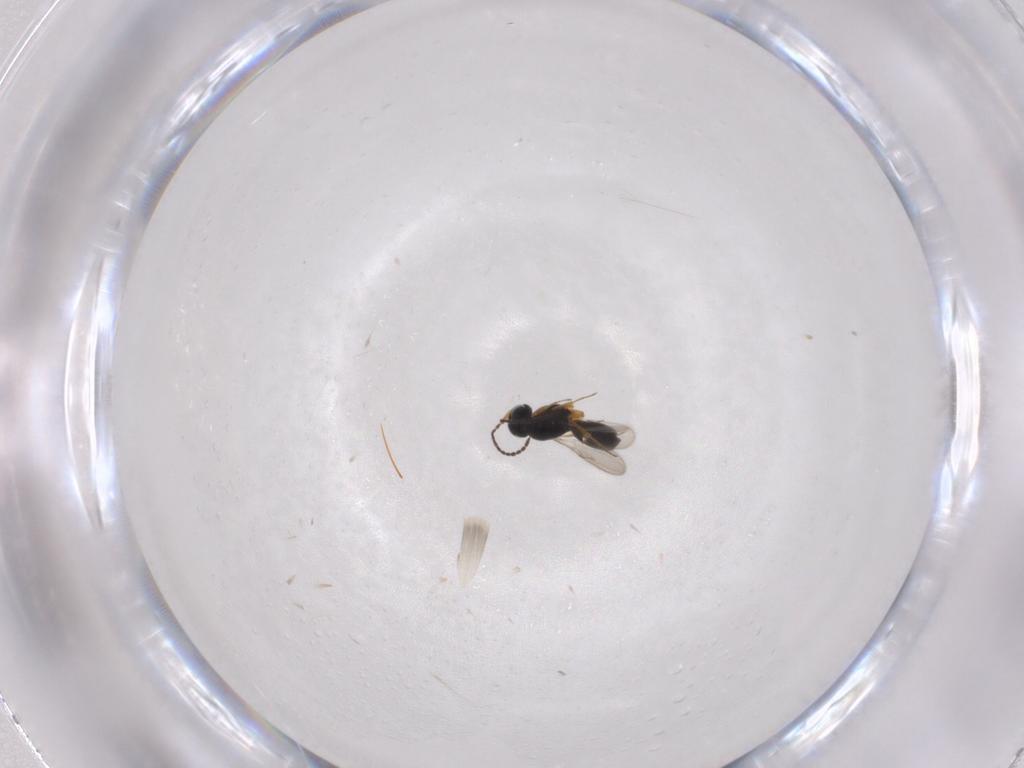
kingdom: Animalia
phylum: Arthropoda
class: Insecta
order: Hymenoptera
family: Scelionidae
